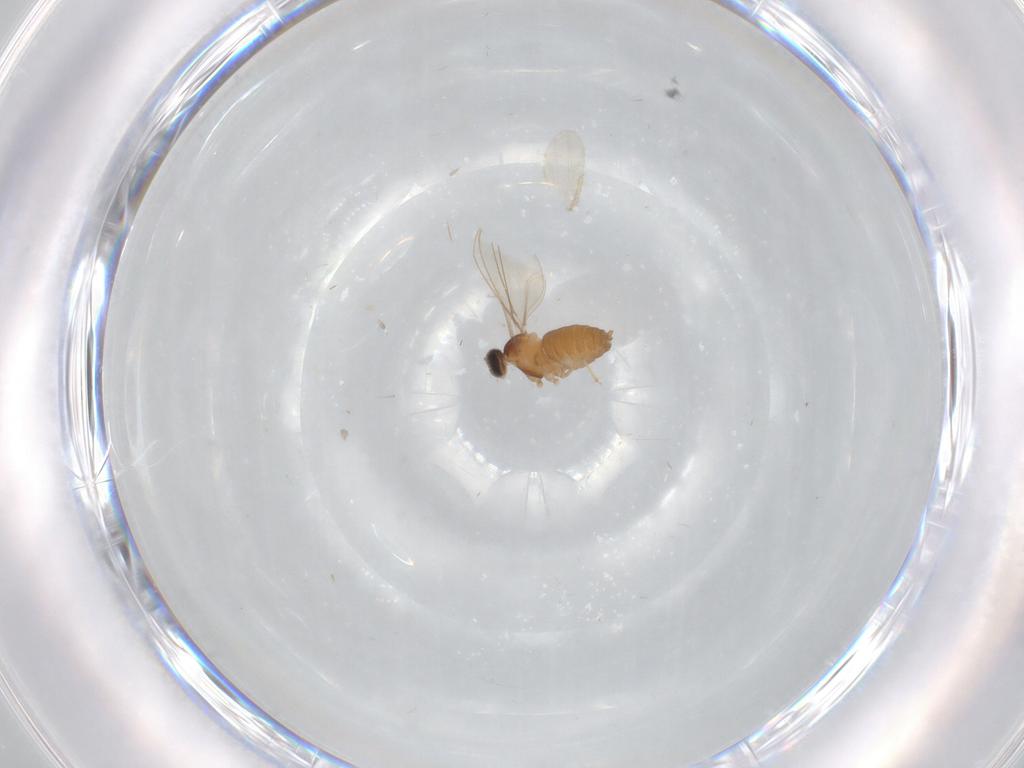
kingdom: Animalia
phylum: Arthropoda
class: Insecta
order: Diptera
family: Cecidomyiidae
